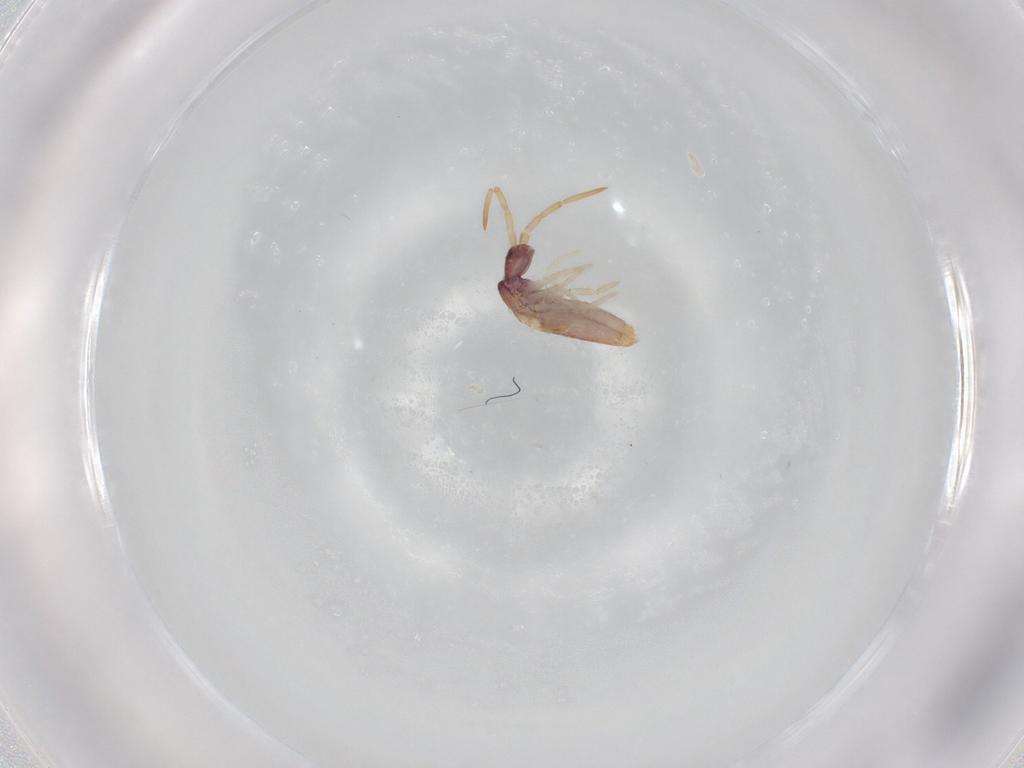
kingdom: Animalia
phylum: Arthropoda
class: Collembola
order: Entomobryomorpha
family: Entomobryidae
